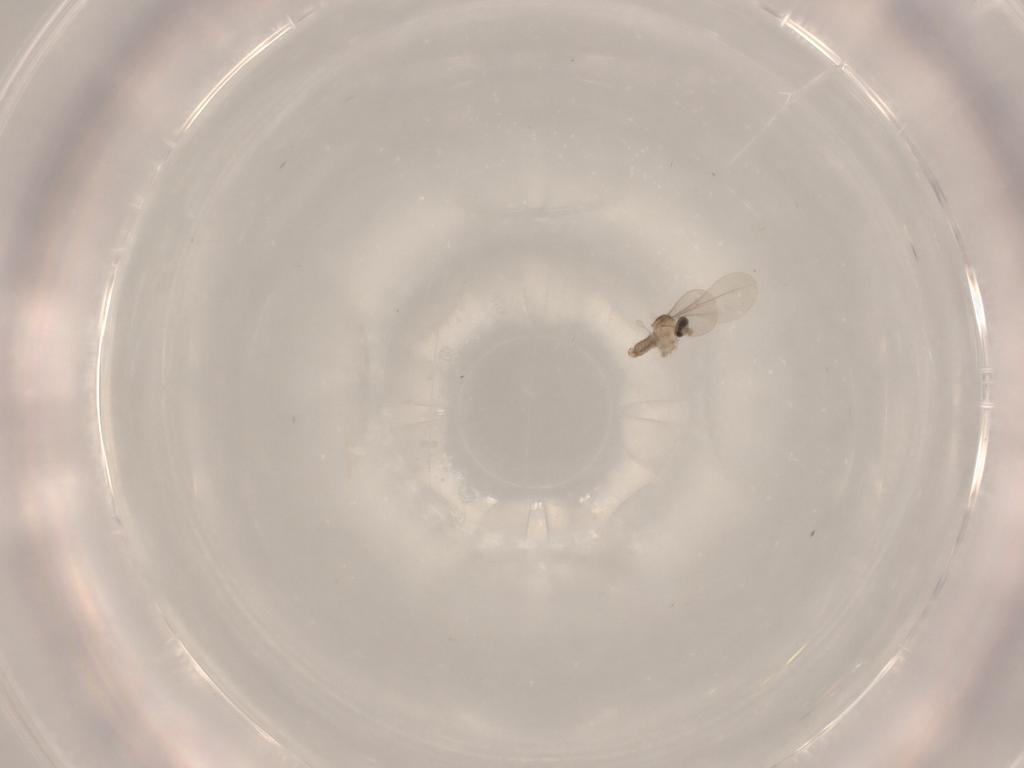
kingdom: Animalia
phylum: Arthropoda
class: Insecta
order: Diptera
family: Cecidomyiidae
